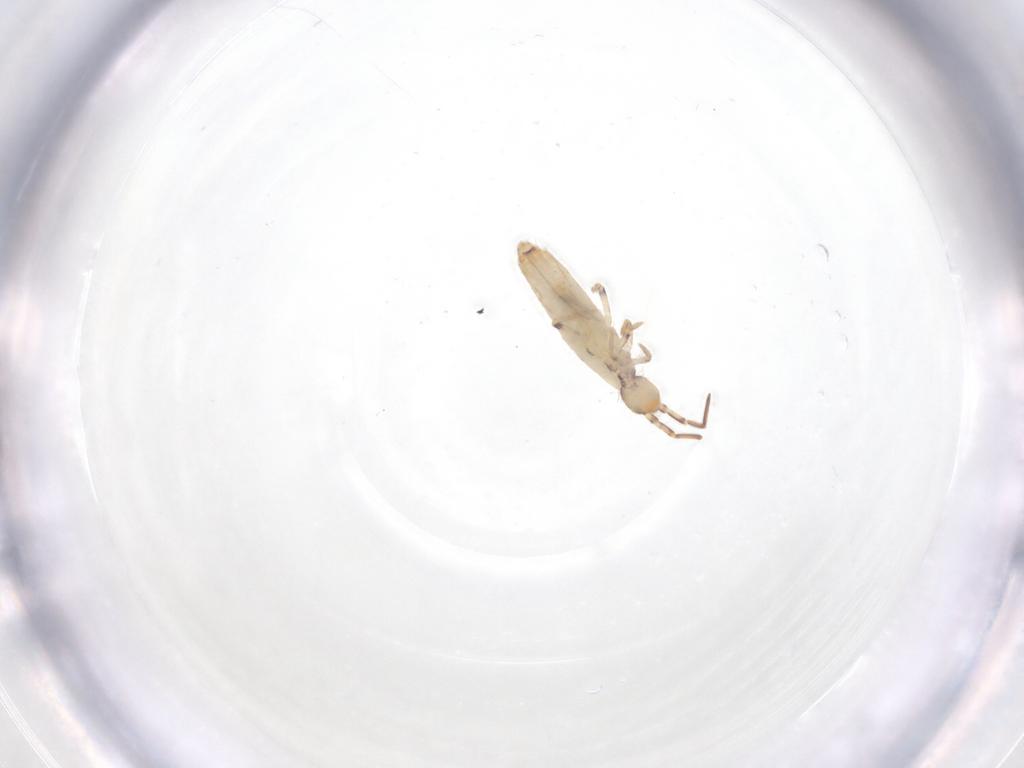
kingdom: Animalia
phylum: Arthropoda
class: Collembola
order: Entomobryomorpha
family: Entomobryidae
